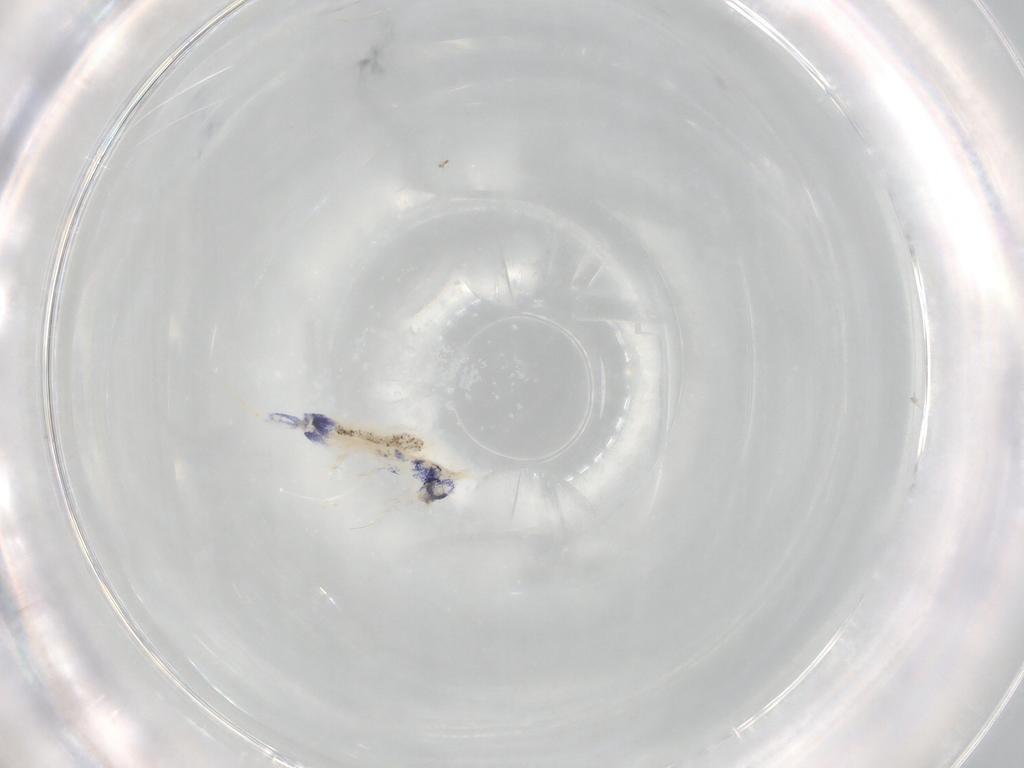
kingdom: Animalia
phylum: Arthropoda
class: Collembola
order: Entomobryomorpha
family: Entomobryidae
